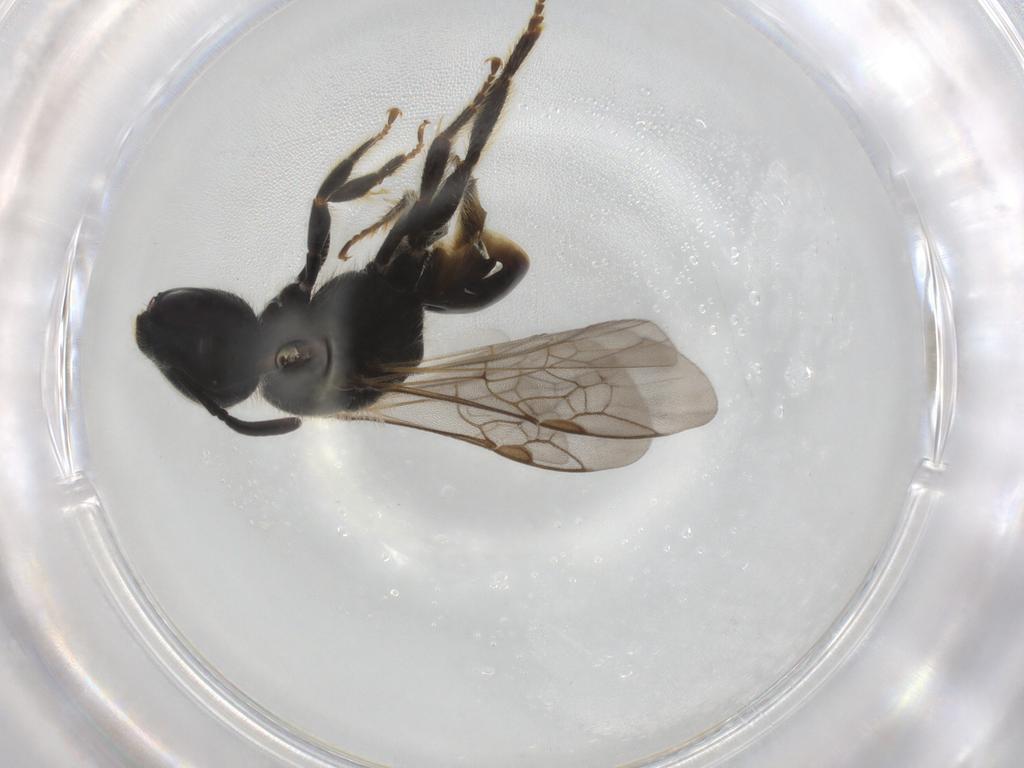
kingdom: Animalia
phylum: Arthropoda
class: Insecta
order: Hymenoptera
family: Halictidae
